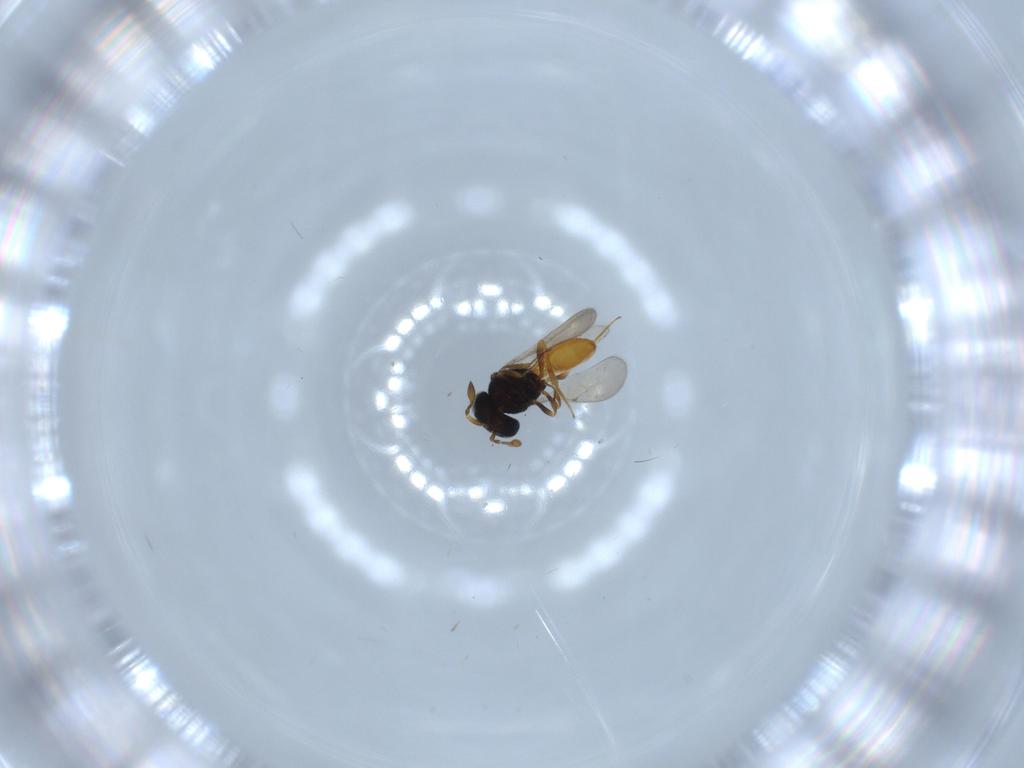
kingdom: Animalia
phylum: Arthropoda
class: Insecta
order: Hymenoptera
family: Scelionidae
